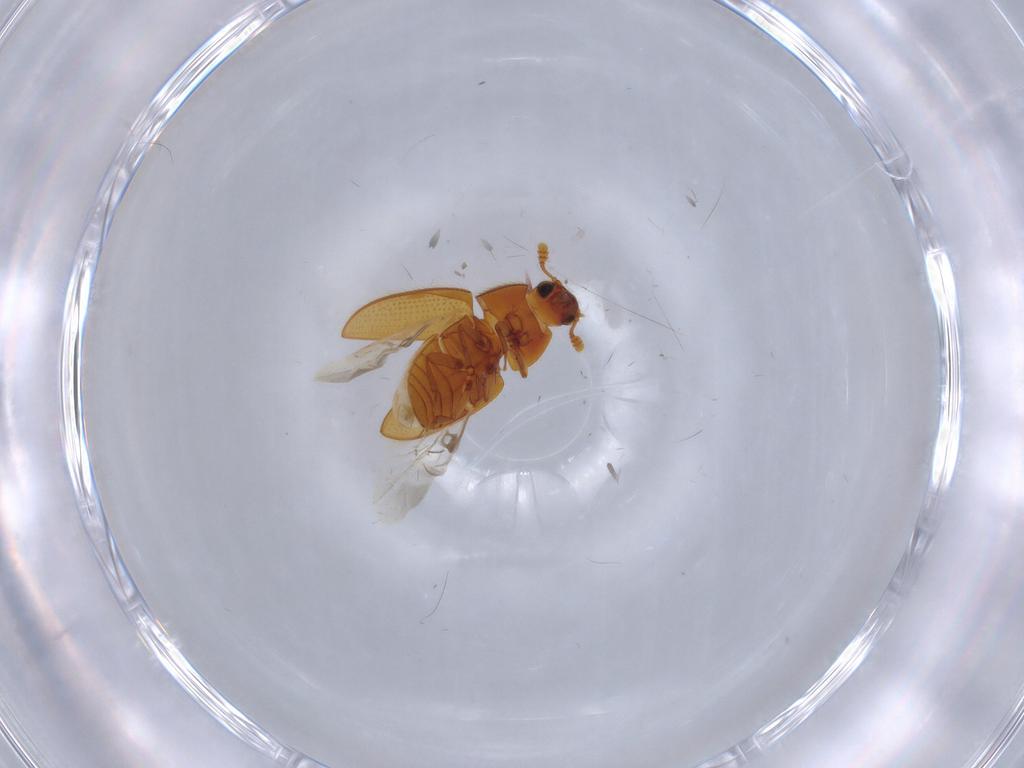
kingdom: Animalia
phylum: Arthropoda
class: Insecta
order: Coleoptera
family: Biphyllidae
